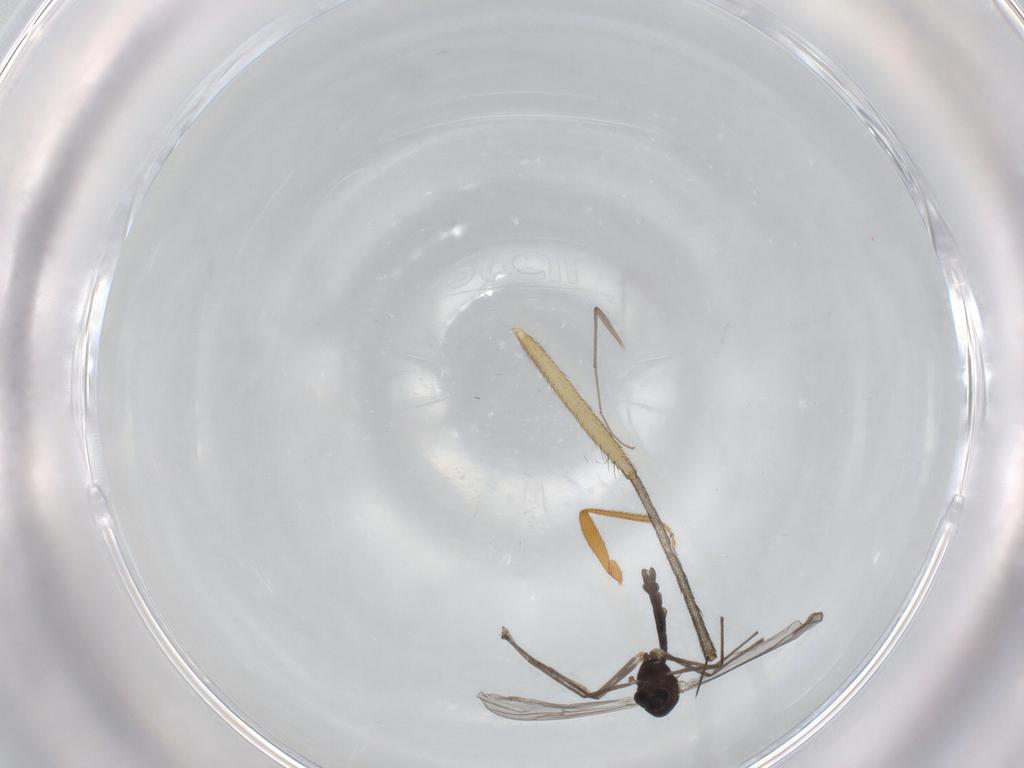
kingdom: Animalia
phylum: Arthropoda
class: Insecta
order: Diptera
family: Chironomidae
